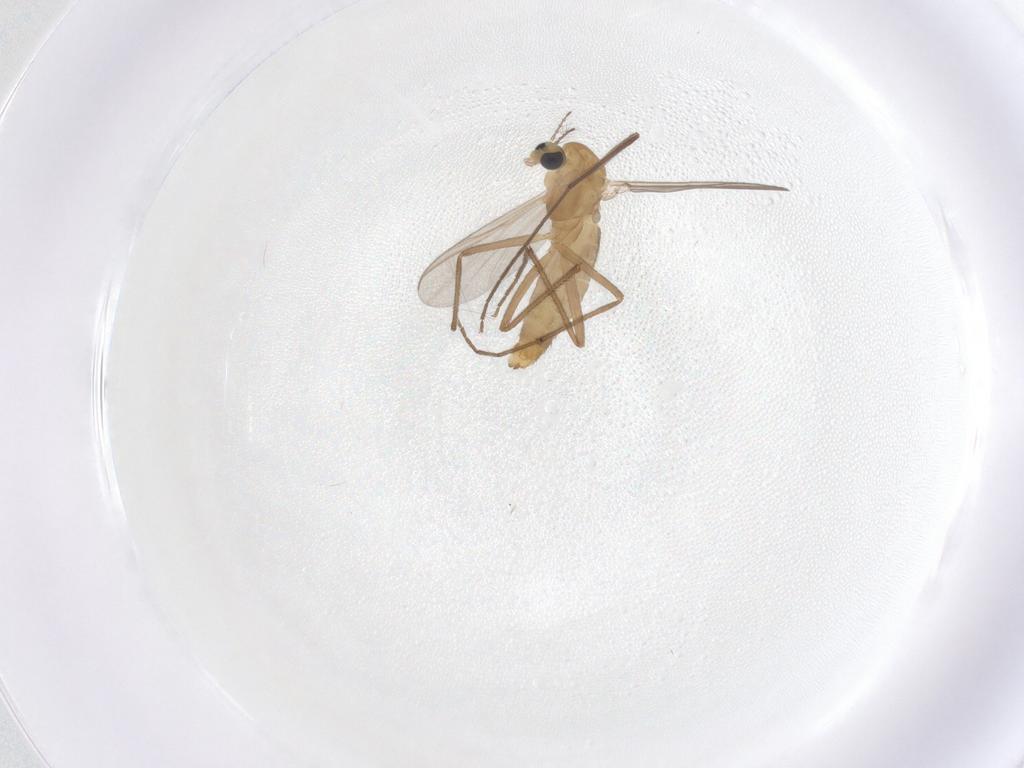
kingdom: Animalia
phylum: Arthropoda
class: Insecta
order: Diptera
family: Chironomidae
